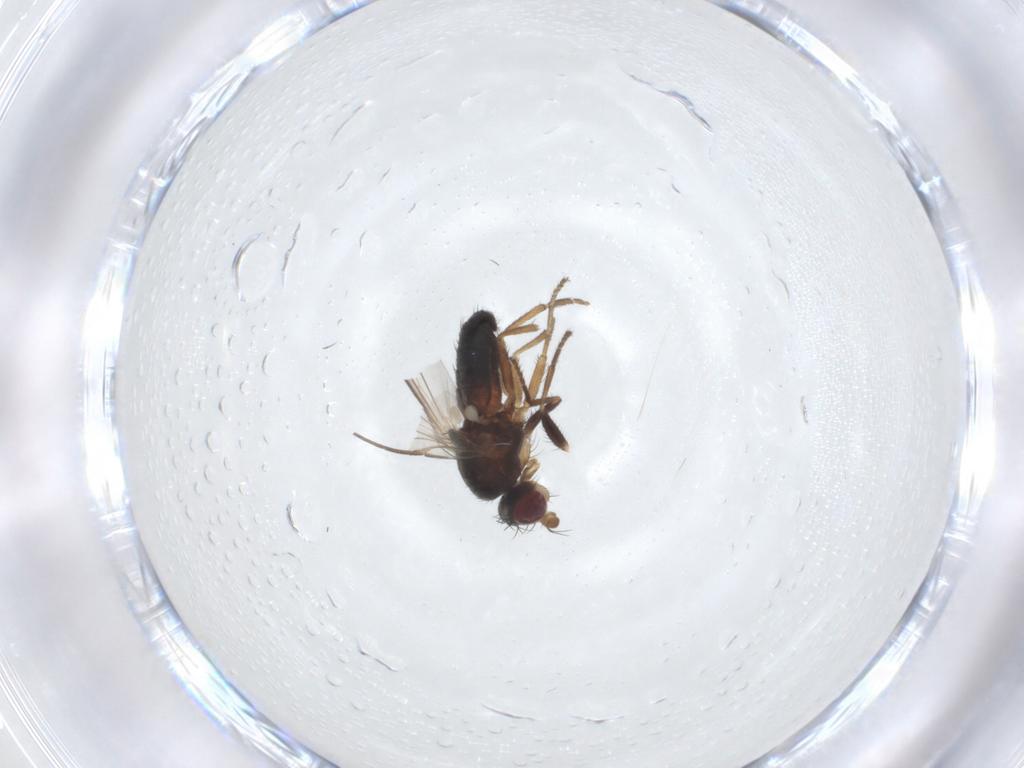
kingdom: Animalia
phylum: Arthropoda
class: Insecta
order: Diptera
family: Heleomyzidae
